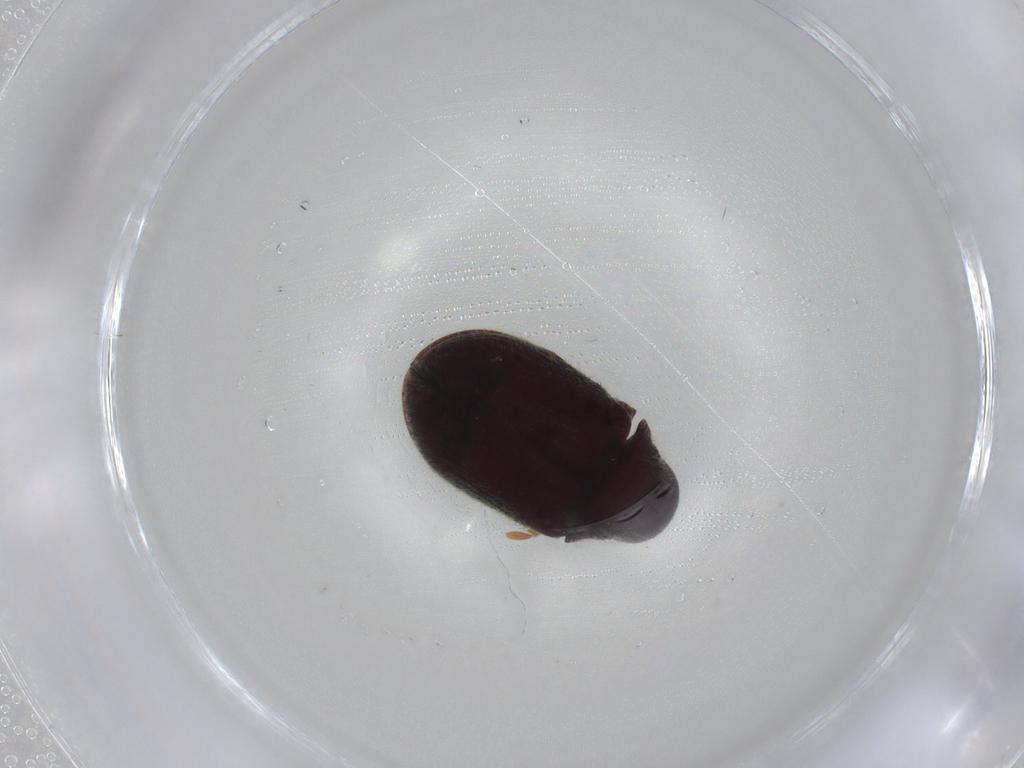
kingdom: Animalia
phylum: Arthropoda
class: Insecta
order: Coleoptera
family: Ptinidae
